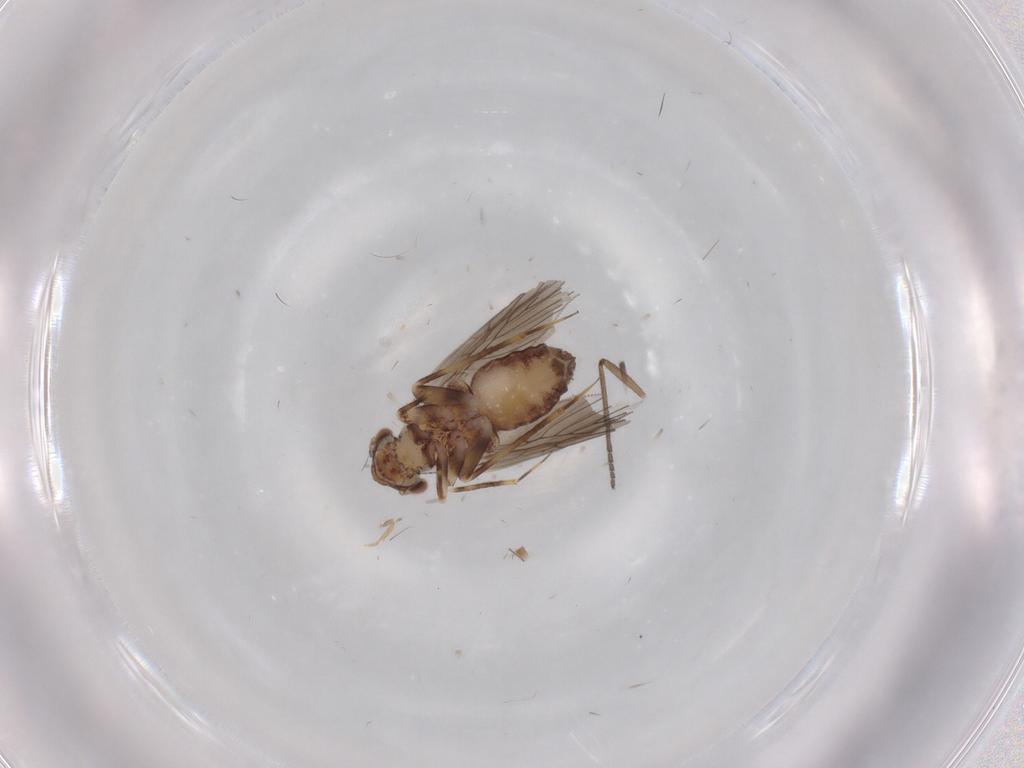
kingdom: Animalia
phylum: Arthropoda
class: Insecta
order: Psocodea
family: Lepidopsocidae
